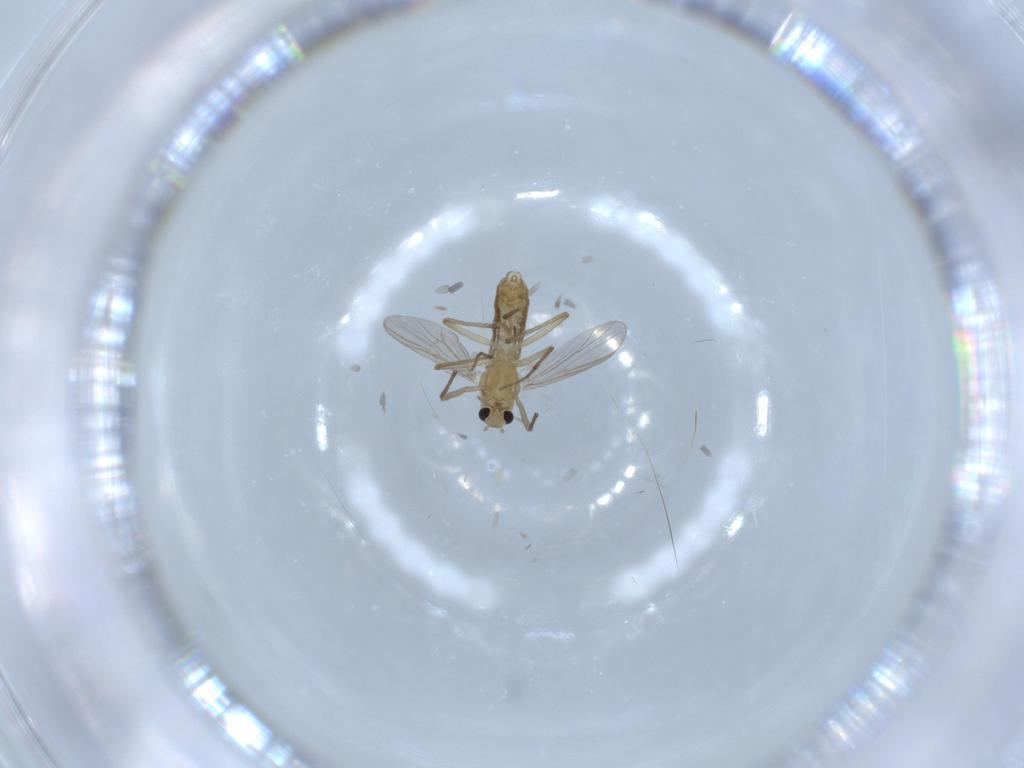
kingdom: Animalia
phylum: Arthropoda
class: Insecta
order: Diptera
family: Chironomidae
